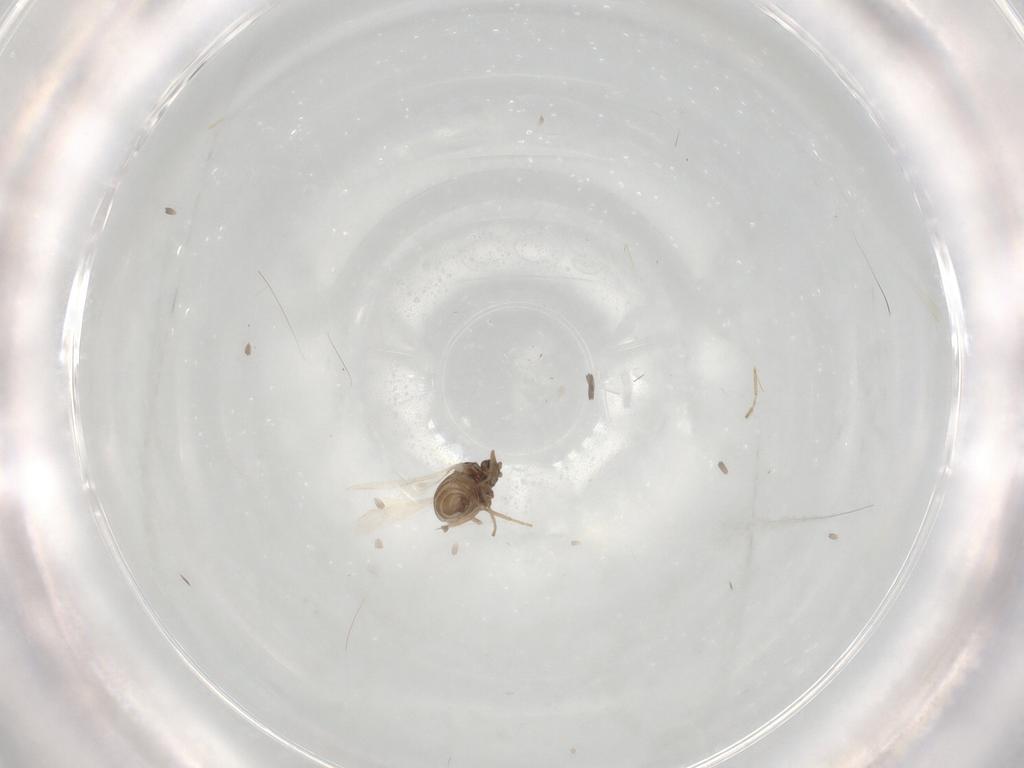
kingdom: Animalia
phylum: Arthropoda
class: Insecta
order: Diptera
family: Cecidomyiidae
